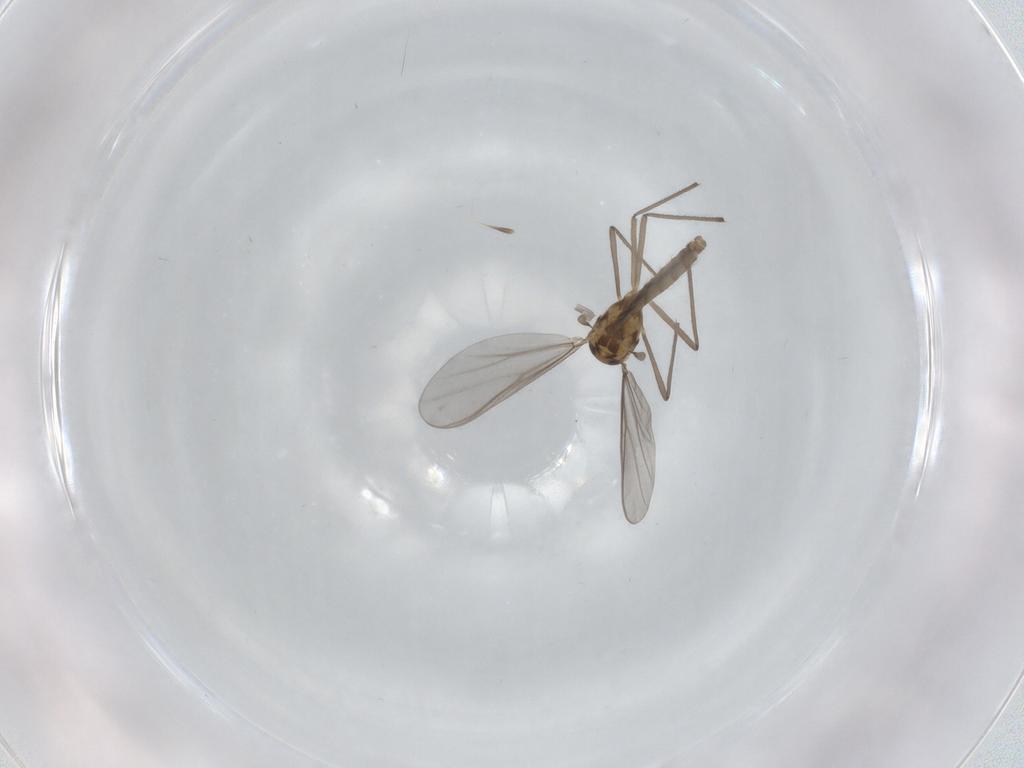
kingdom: Animalia
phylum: Arthropoda
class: Insecta
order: Diptera
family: Chironomidae
